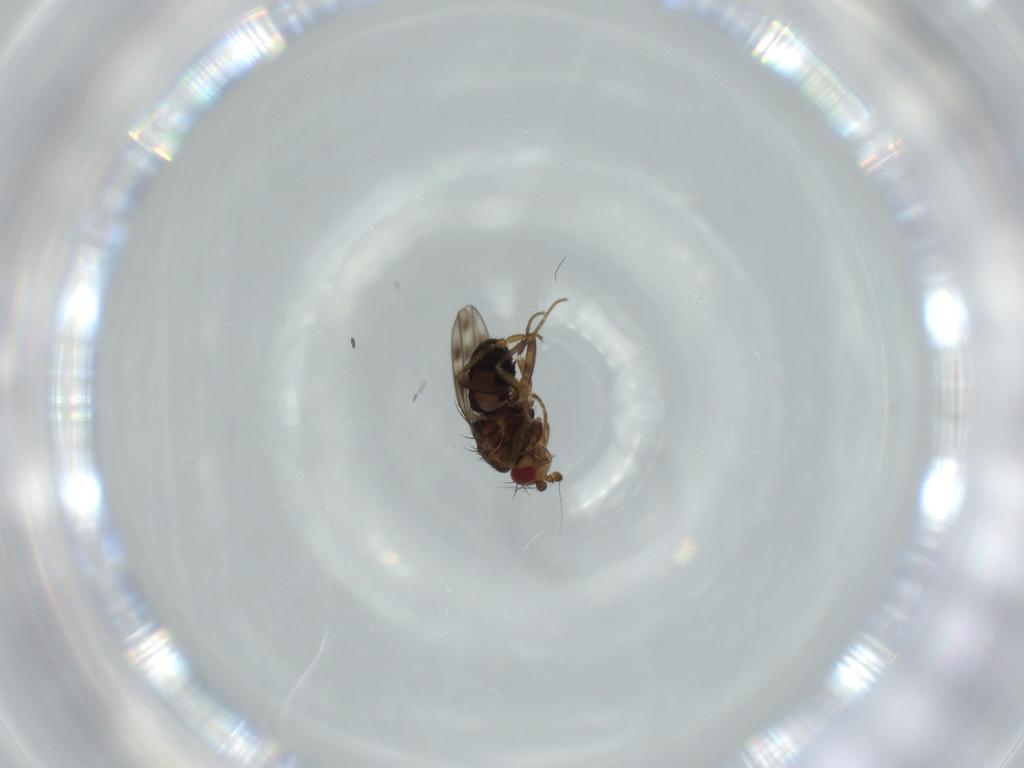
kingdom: Animalia
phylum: Arthropoda
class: Insecta
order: Diptera
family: Sphaeroceridae
